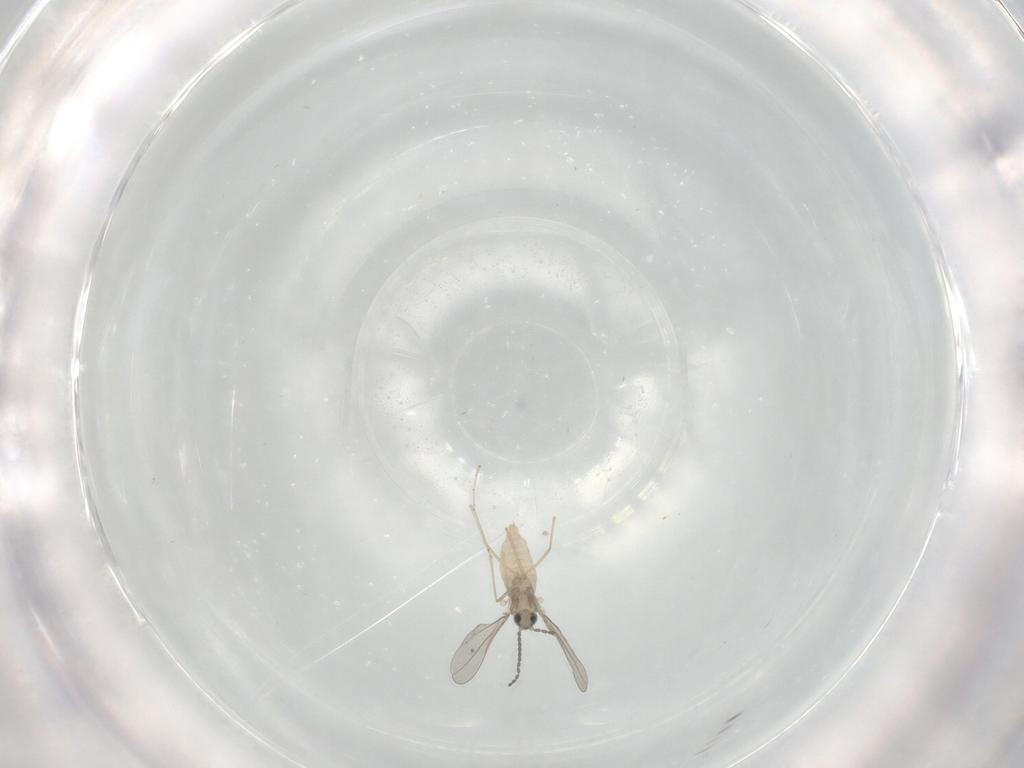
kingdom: Animalia
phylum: Arthropoda
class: Insecta
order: Diptera
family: Cecidomyiidae
